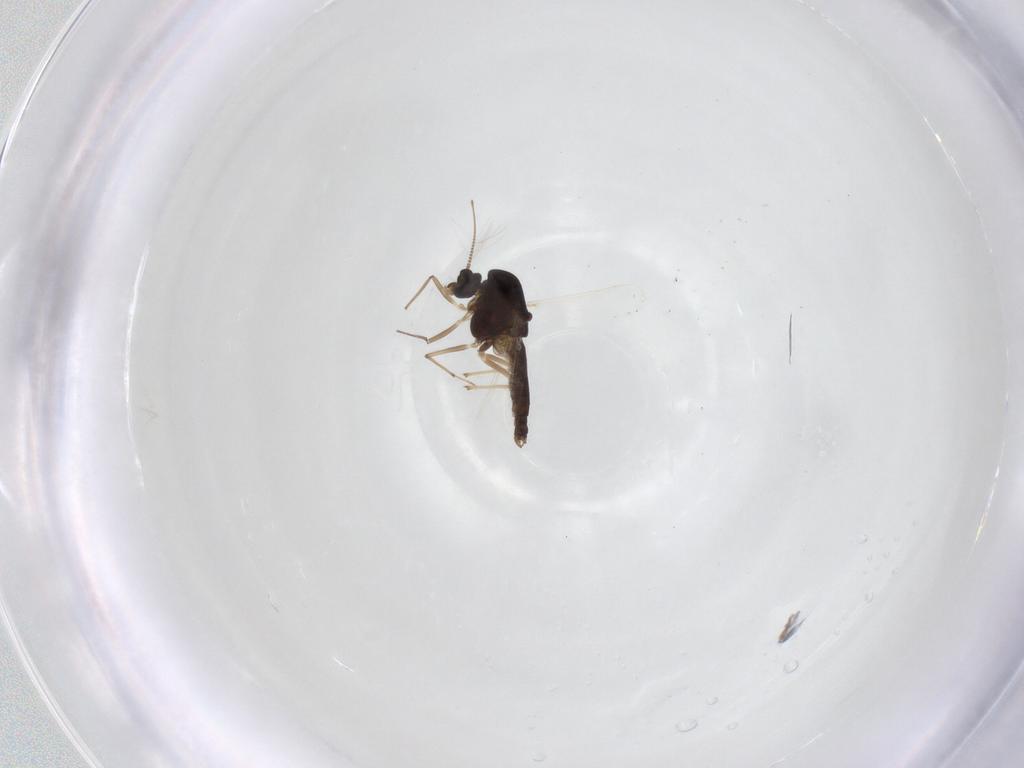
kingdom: Animalia
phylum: Arthropoda
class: Insecta
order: Diptera
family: Chironomidae
